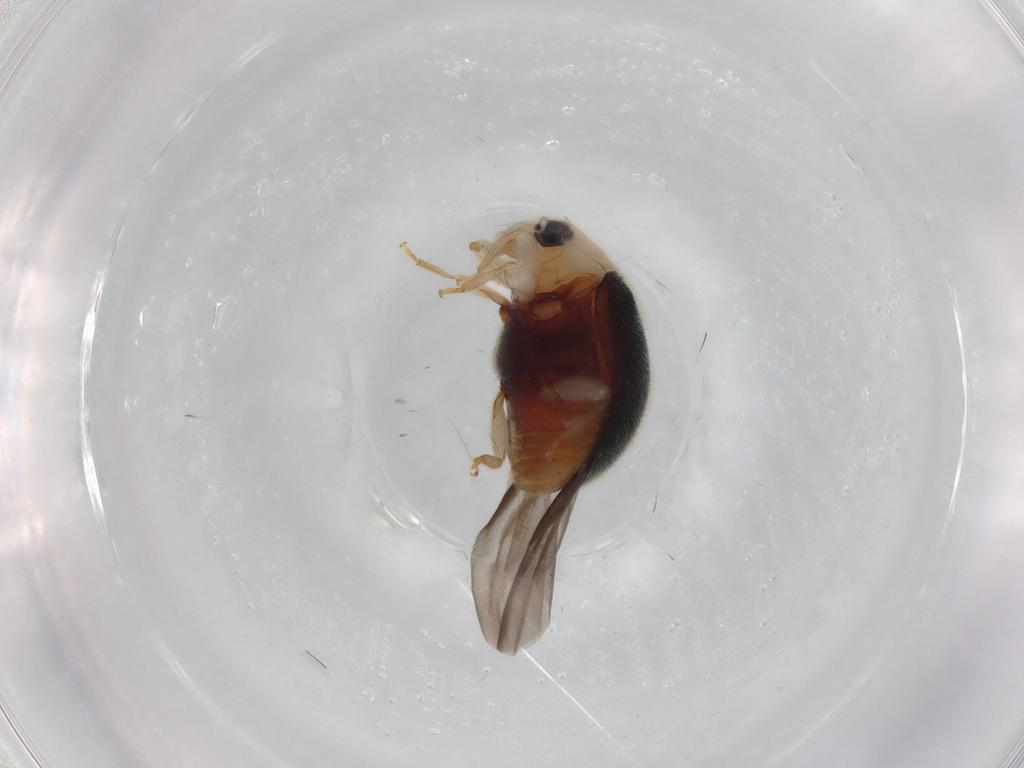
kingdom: Animalia
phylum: Arthropoda
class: Insecta
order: Coleoptera
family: Coccinellidae
